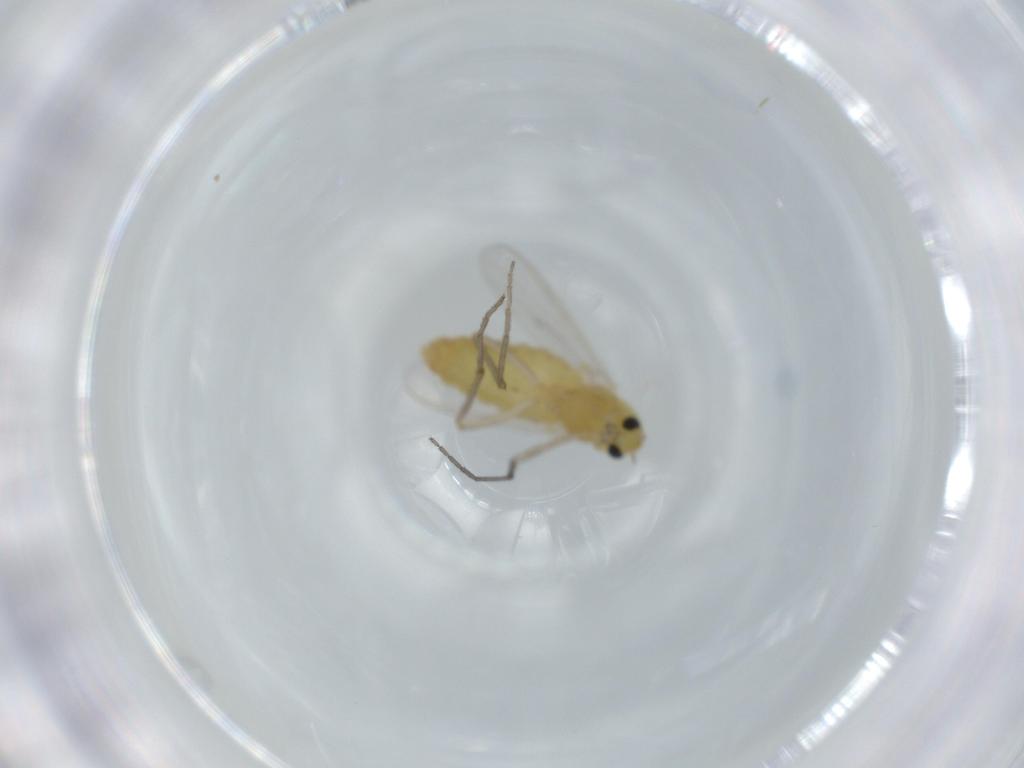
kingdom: Animalia
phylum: Arthropoda
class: Insecta
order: Diptera
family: Chironomidae
